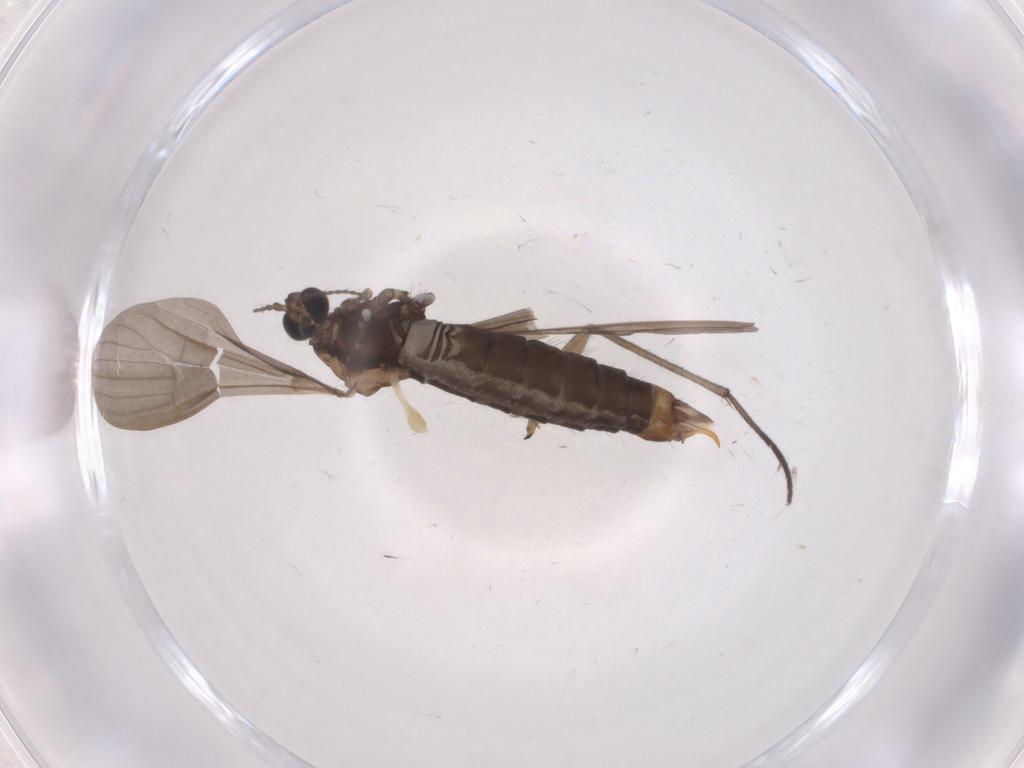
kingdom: Animalia
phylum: Arthropoda
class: Insecta
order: Diptera
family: Limoniidae
